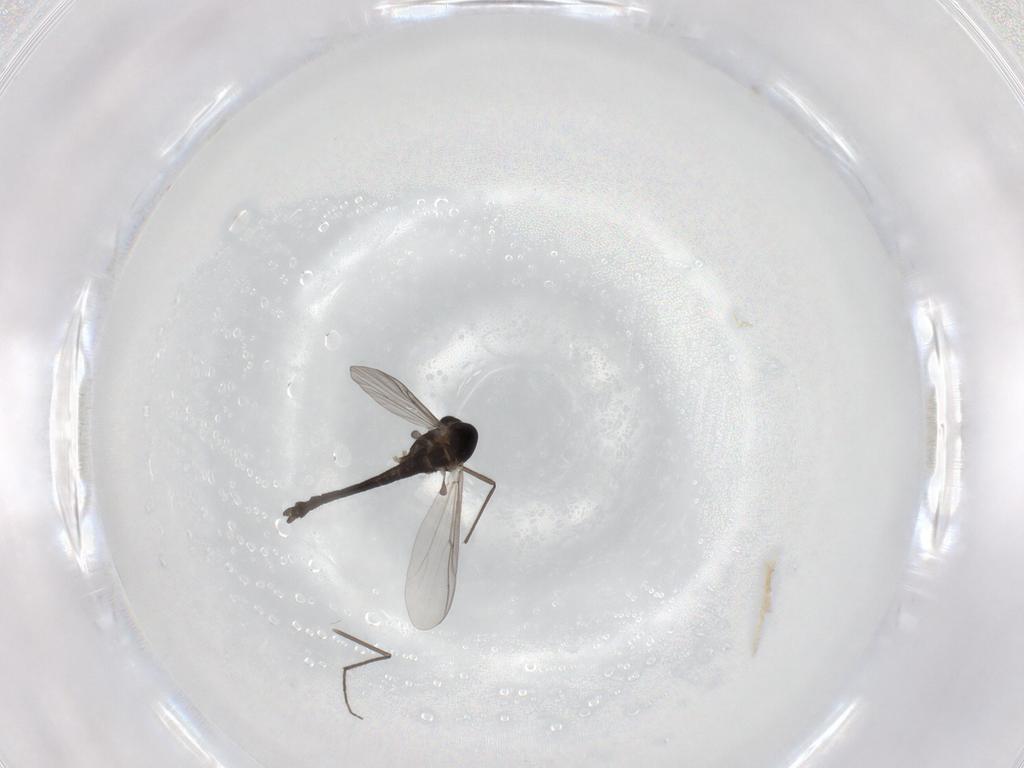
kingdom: Animalia
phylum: Arthropoda
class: Insecta
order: Diptera
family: Chironomidae
